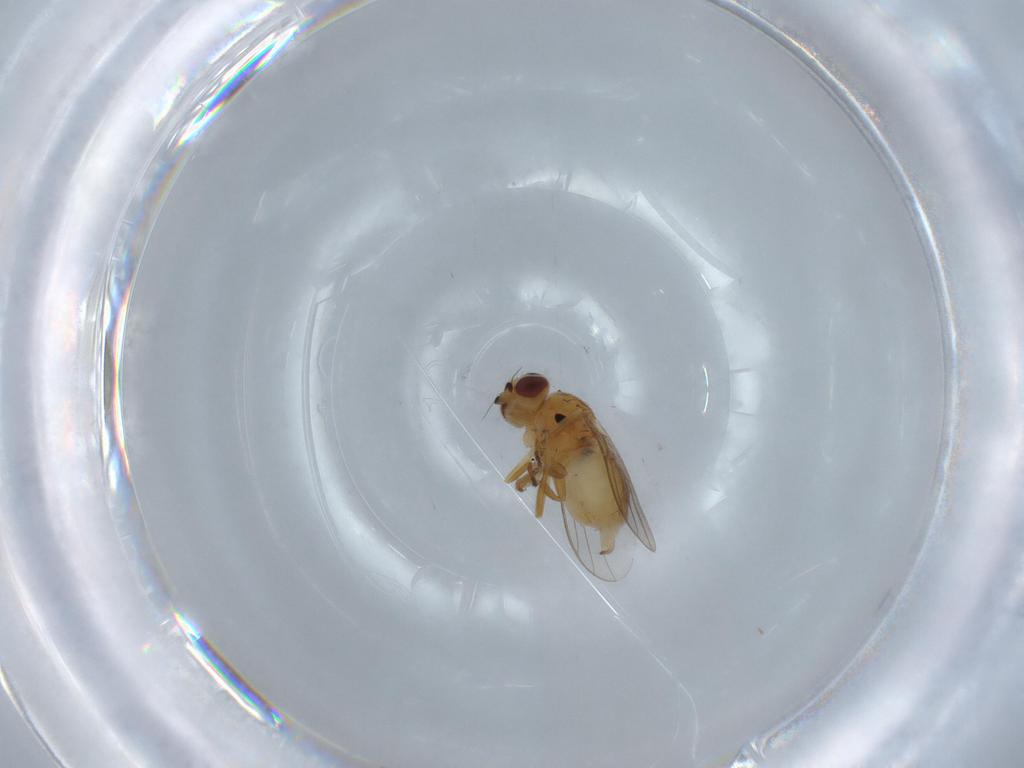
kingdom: Animalia
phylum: Arthropoda
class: Insecta
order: Diptera
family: Chloropidae
